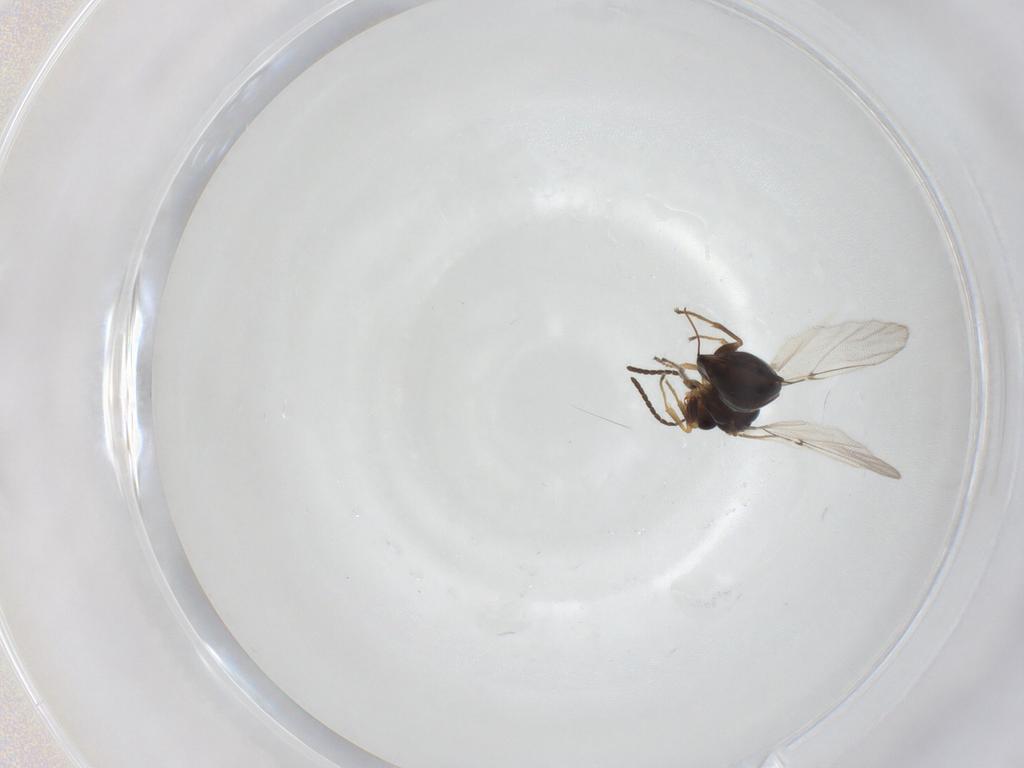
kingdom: Animalia
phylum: Arthropoda
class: Insecta
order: Hymenoptera
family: Cynipidae
